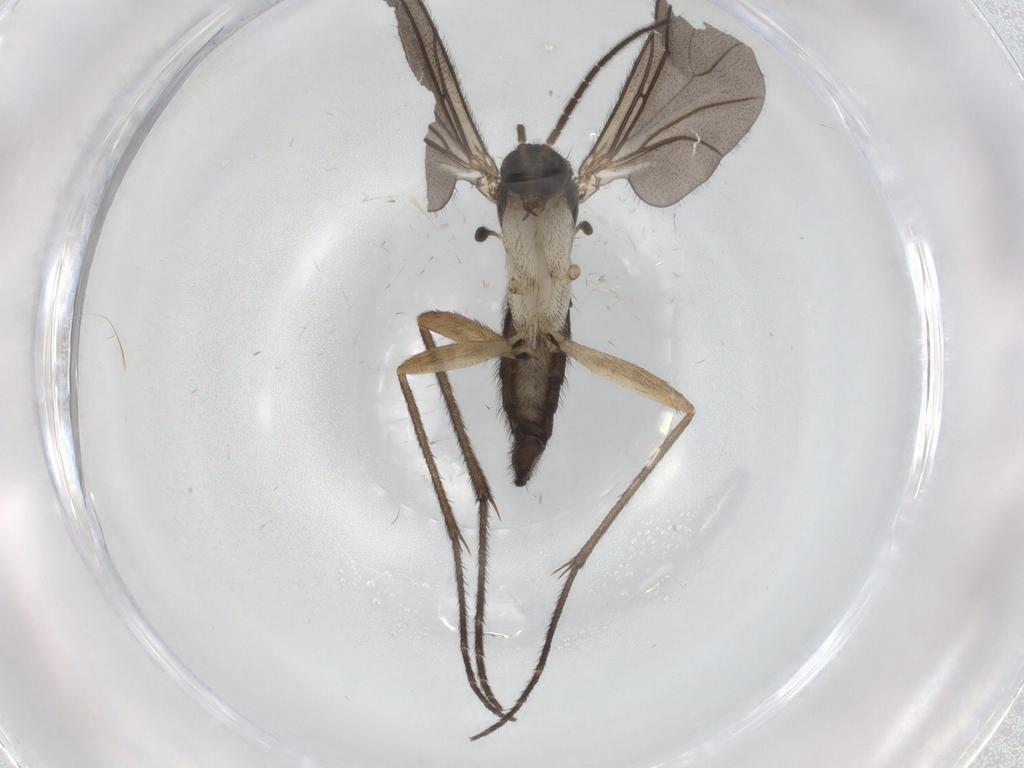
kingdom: Animalia
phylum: Arthropoda
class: Insecta
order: Diptera
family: Sciaridae
